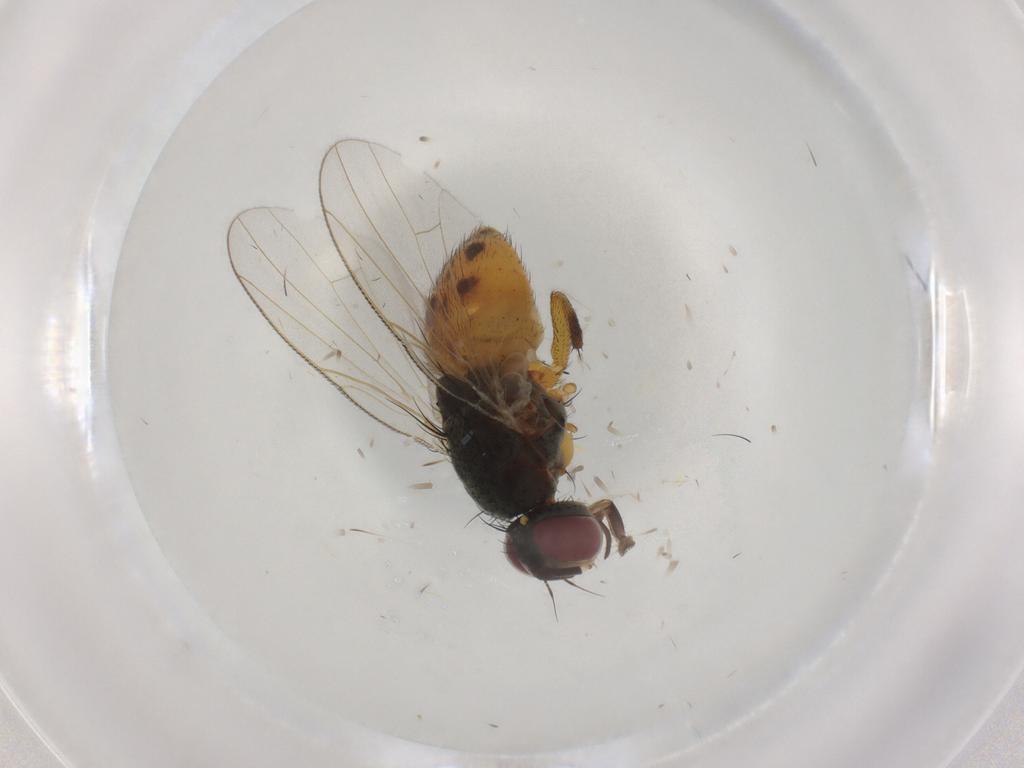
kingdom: Animalia
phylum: Arthropoda
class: Insecta
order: Diptera
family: Muscidae
